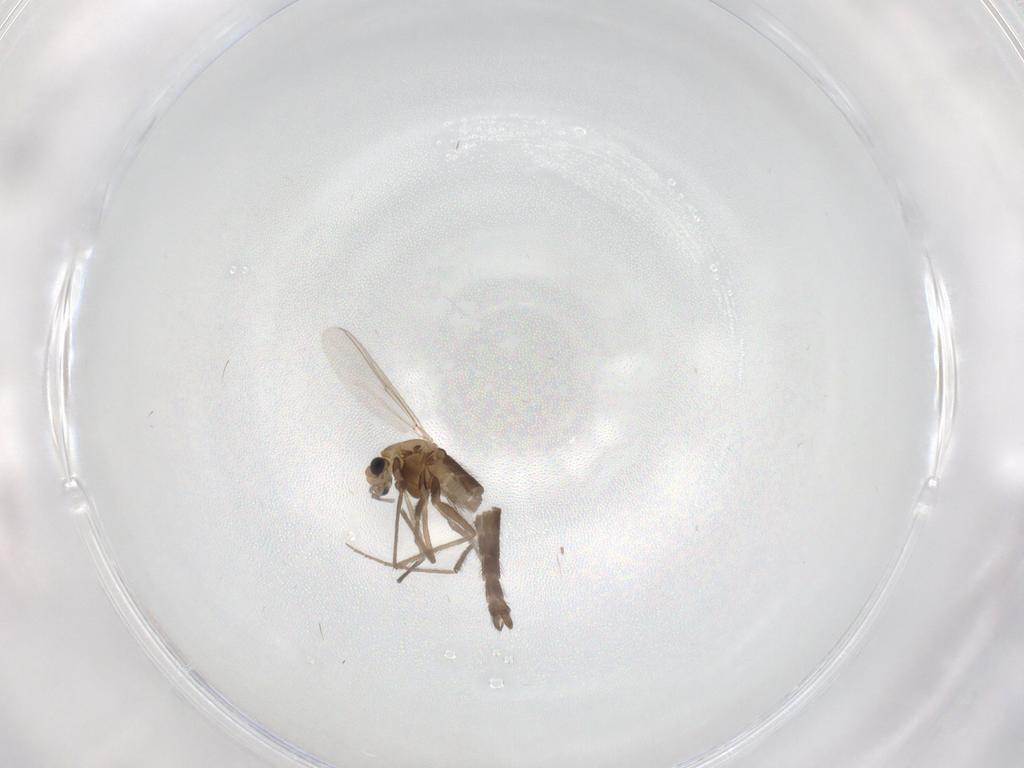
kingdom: Animalia
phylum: Arthropoda
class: Insecta
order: Diptera
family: Chironomidae
